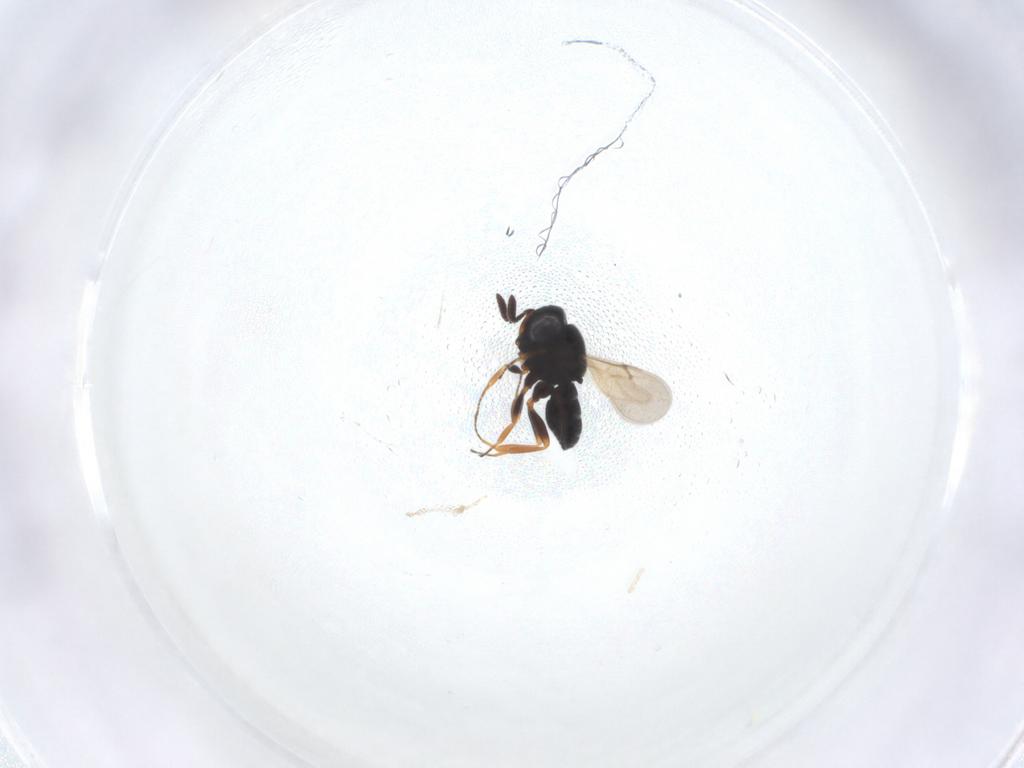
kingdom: Animalia
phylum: Arthropoda
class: Insecta
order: Hymenoptera
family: Scelionidae
